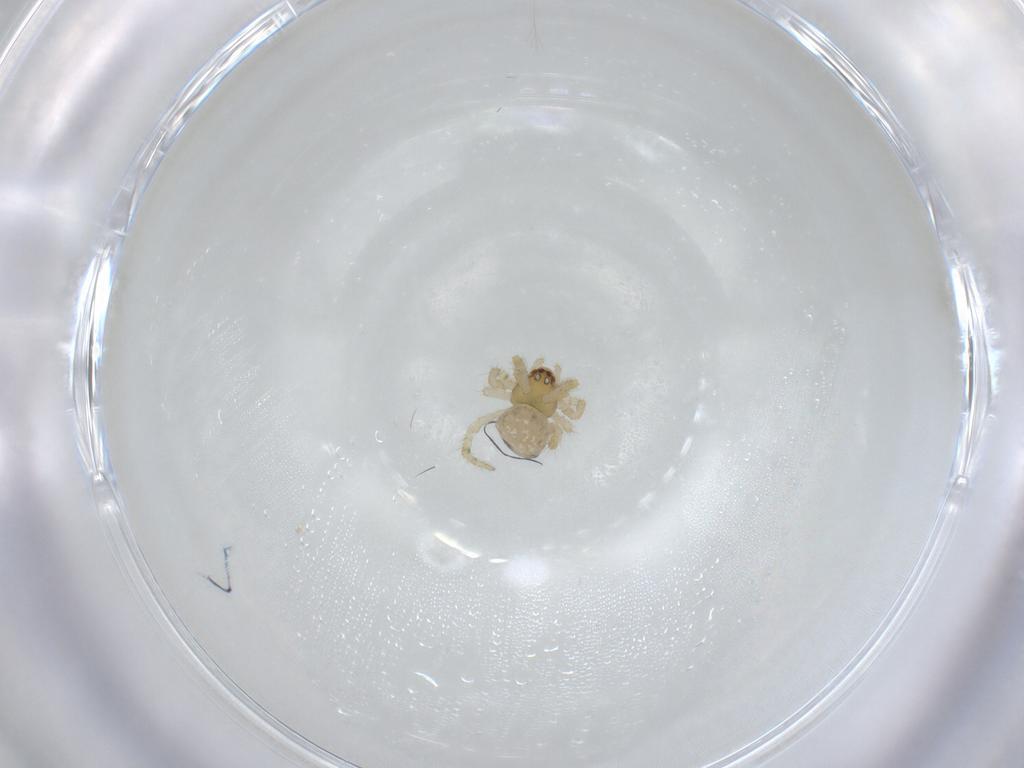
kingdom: Animalia
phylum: Arthropoda
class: Arachnida
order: Araneae
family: Theridiidae
